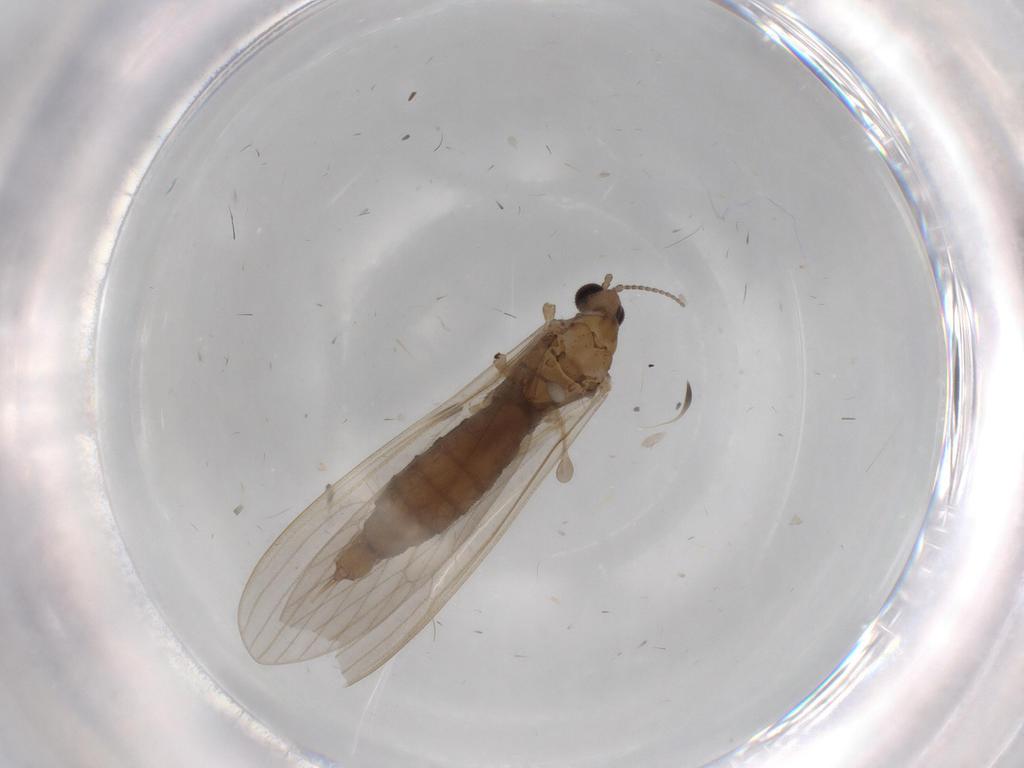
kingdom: Animalia
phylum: Arthropoda
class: Insecta
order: Diptera
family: Limoniidae
